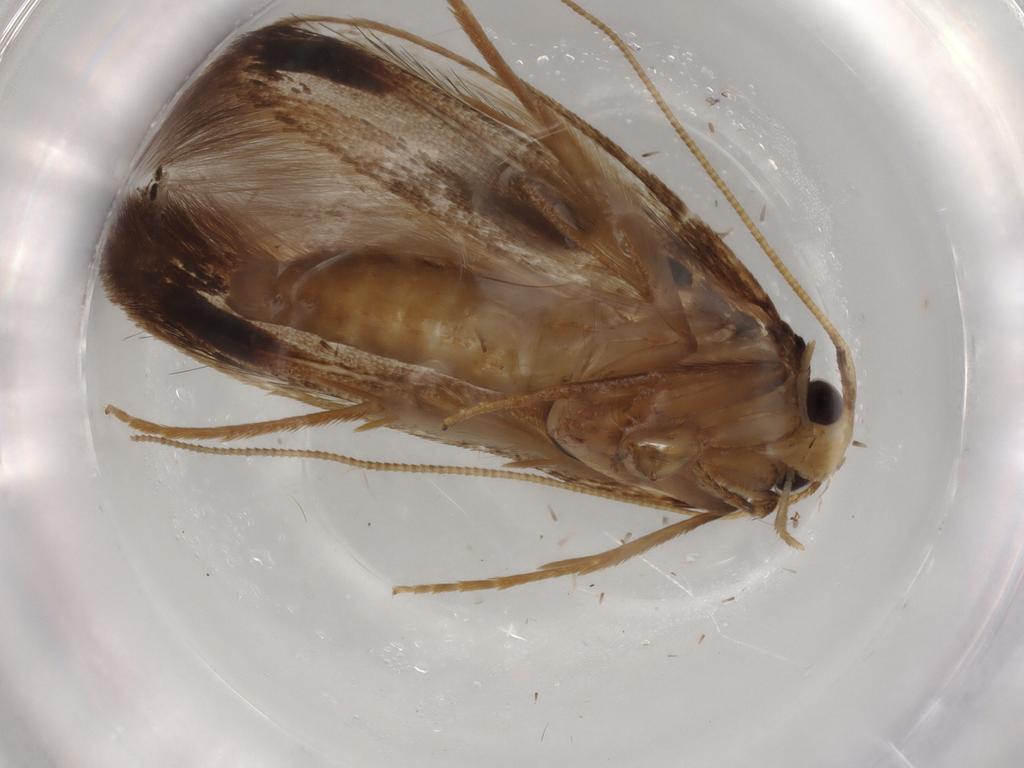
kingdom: Animalia
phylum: Arthropoda
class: Insecta
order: Lepidoptera
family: Tineidae
